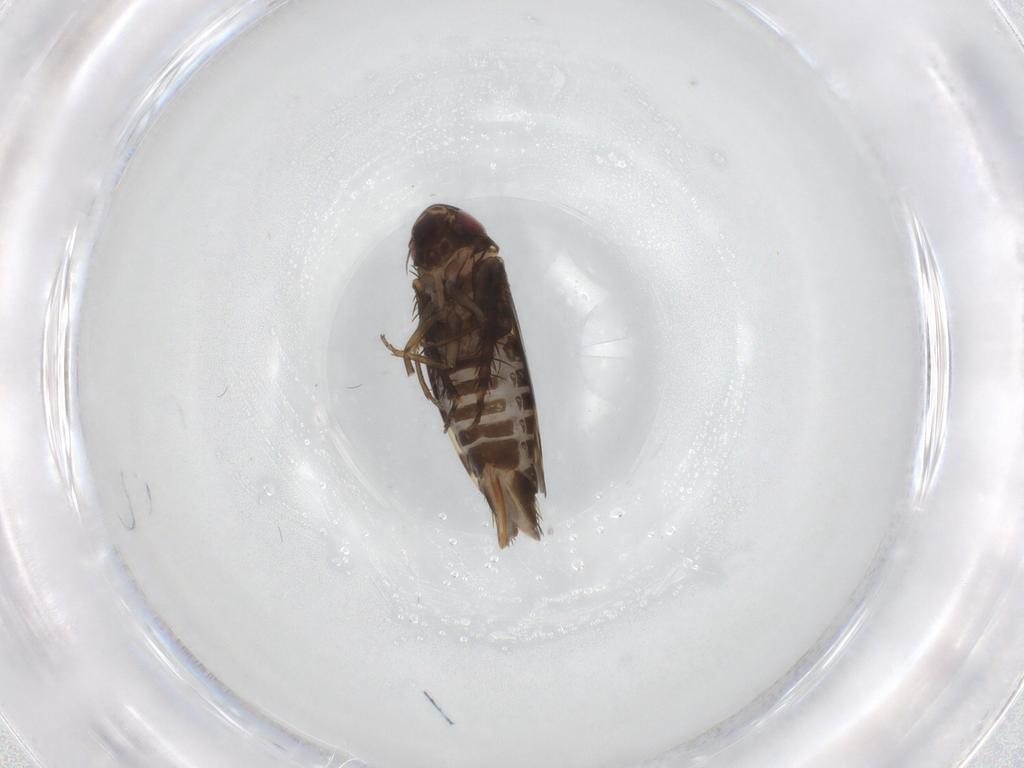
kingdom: Animalia
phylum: Arthropoda
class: Insecta
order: Hemiptera
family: Cicadellidae
